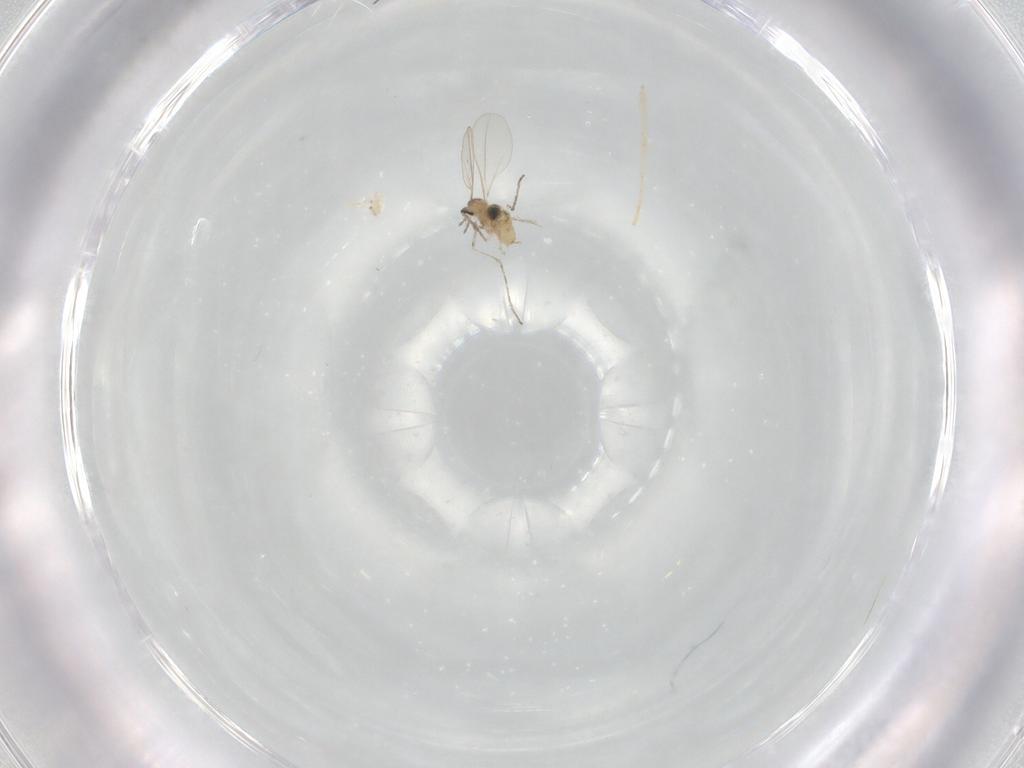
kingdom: Animalia
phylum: Arthropoda
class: Insecta
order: Diptera
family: Cecidomyiidae
